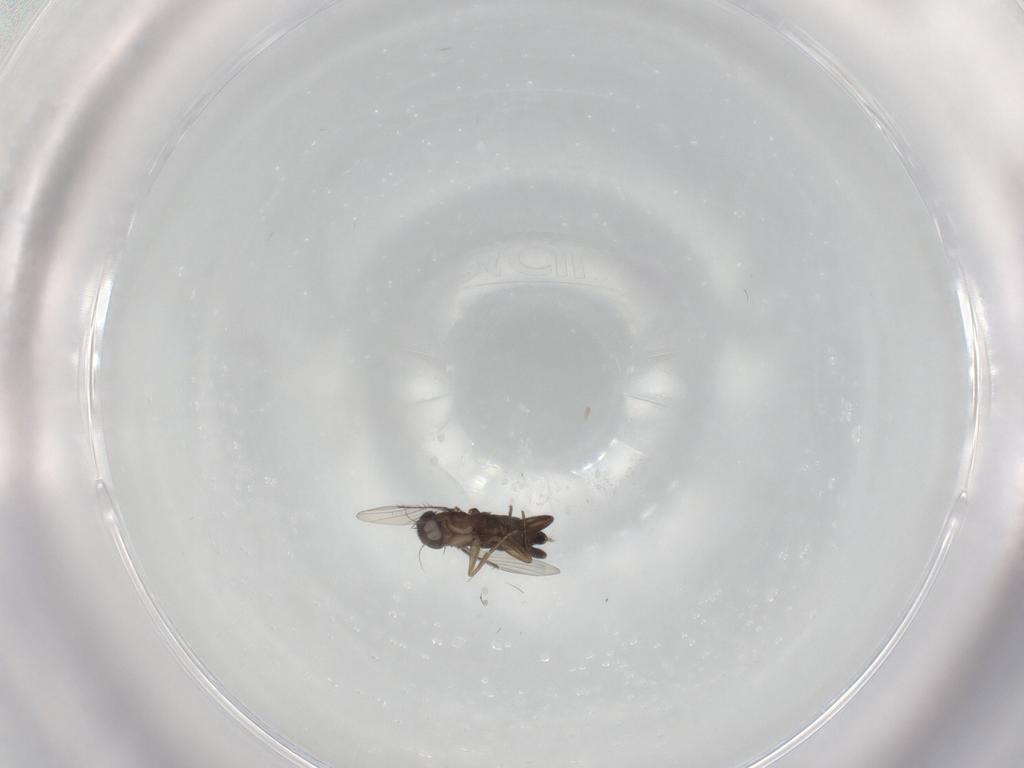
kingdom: Animalia
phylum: Arthropoda
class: Insecta
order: Diptera
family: Phoridae
